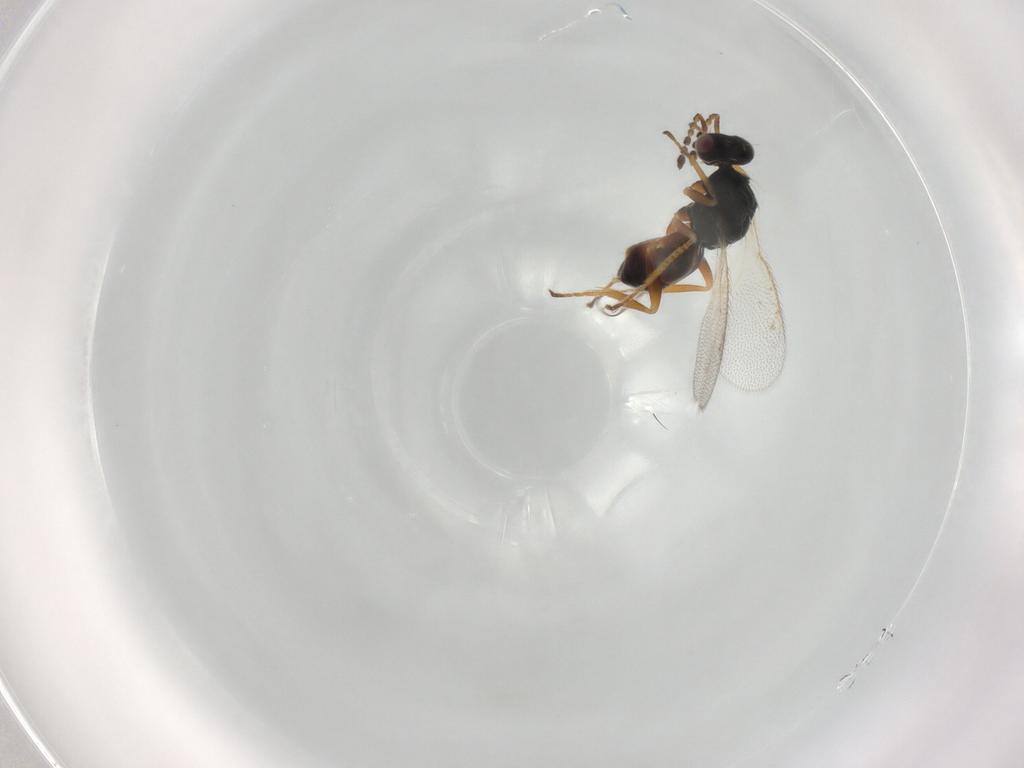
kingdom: Animalia
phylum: Arthropoda
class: Insecta
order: Hymenoptera
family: Eulophidae
